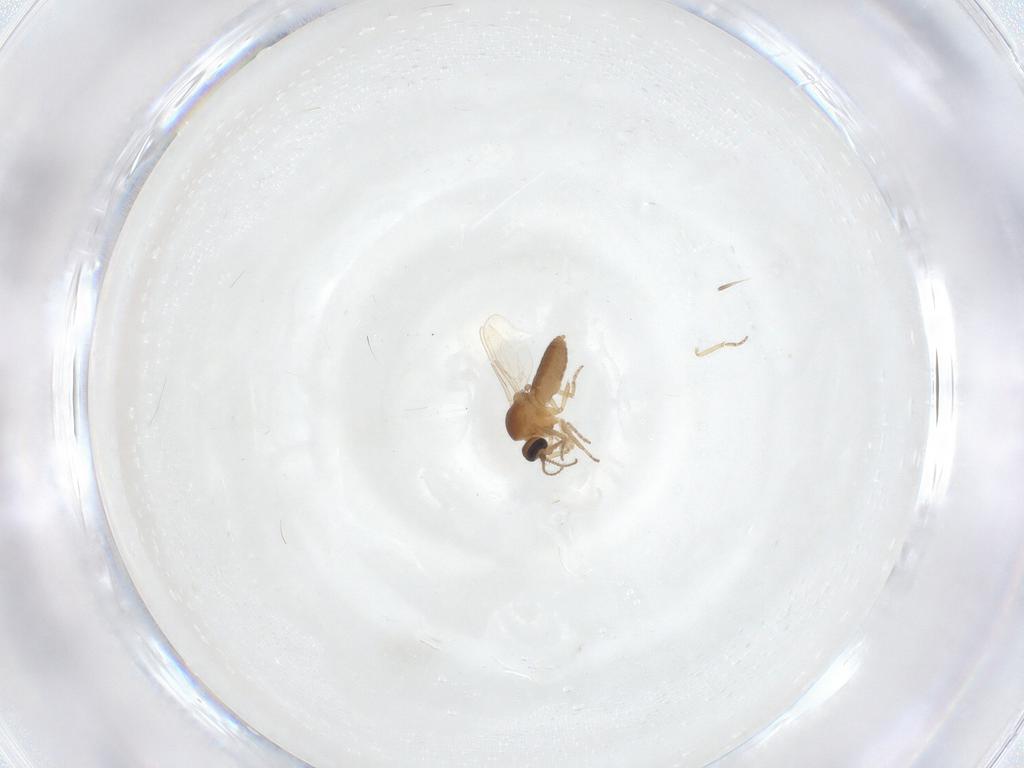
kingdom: Animalia
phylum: Arthropoda
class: Insecta
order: Diptera
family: Ceratopogonidae
